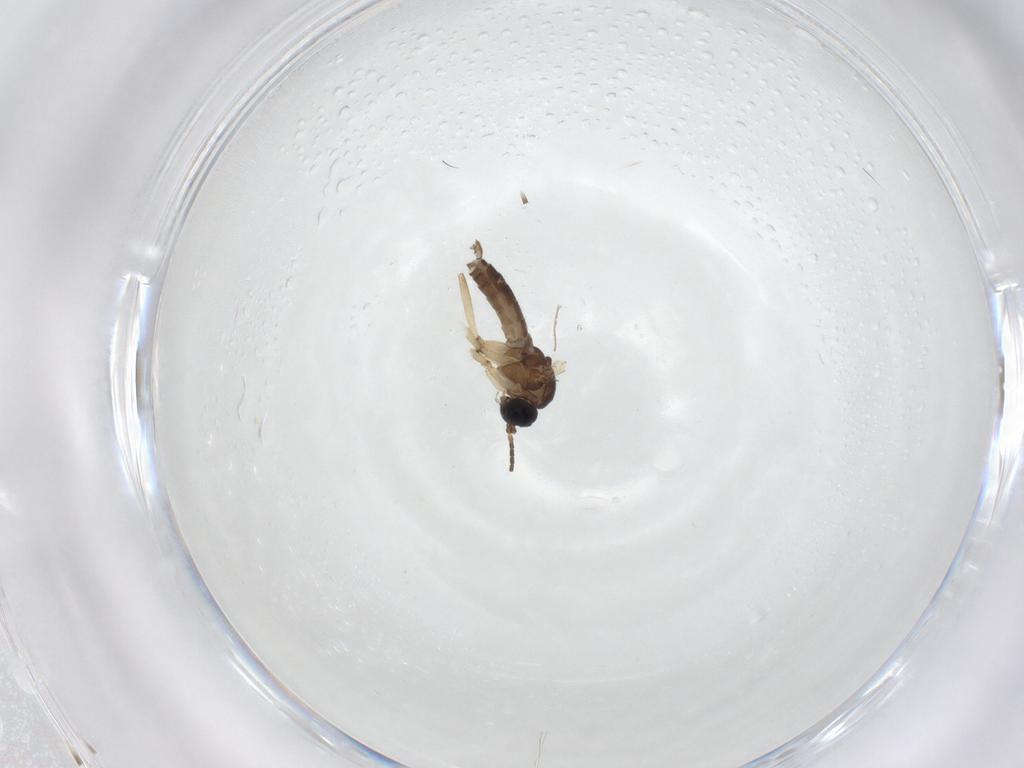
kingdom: Animalia
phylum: Arthropoda
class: Insecta
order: Diptera
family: Sciaridae
